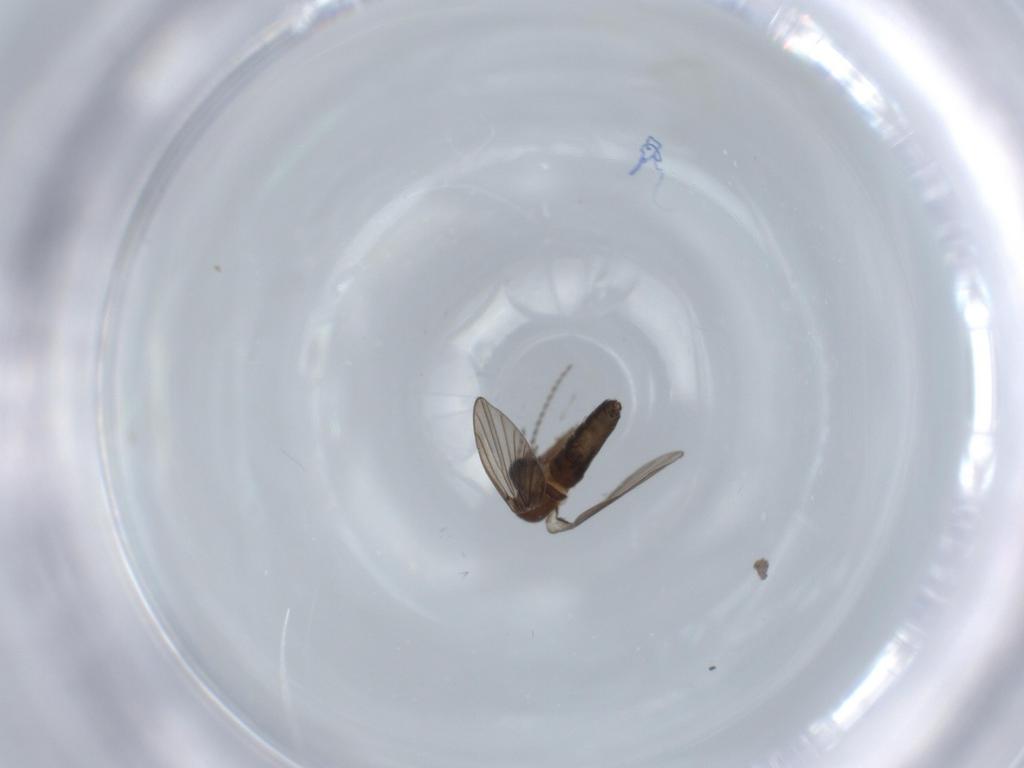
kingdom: Animalia
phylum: Arthropoda
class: Insecta
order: Diptera
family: Psychodidae
